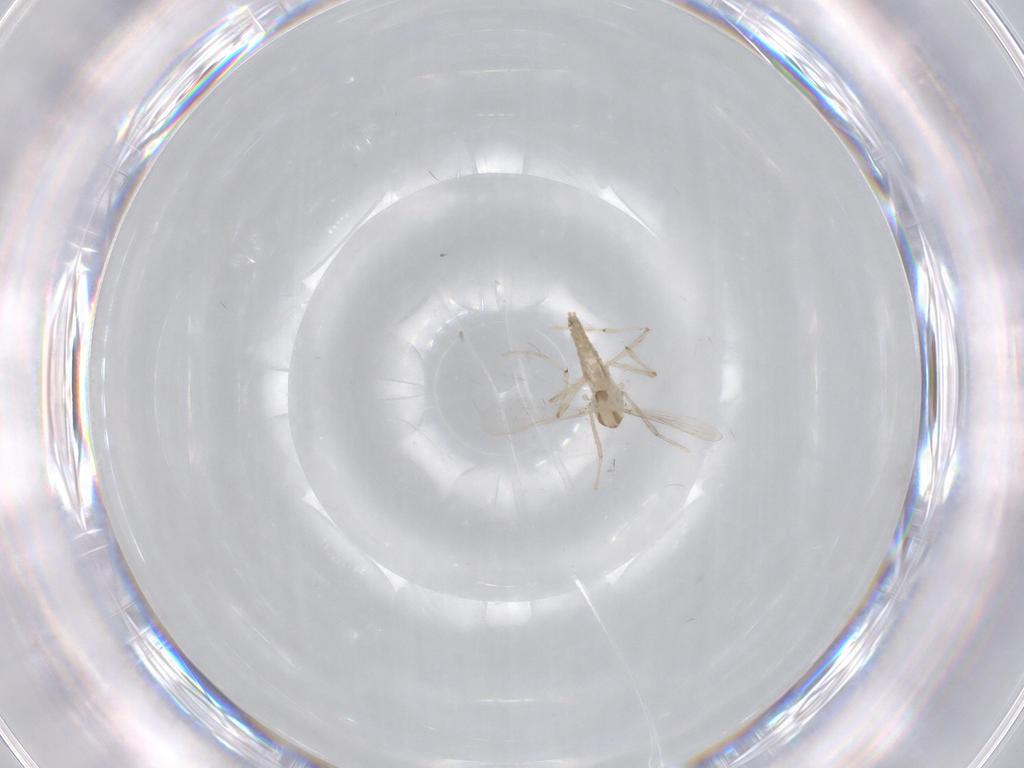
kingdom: Animalia
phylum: Arthropoda
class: Insecta
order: Diptera
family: Chironomidae
